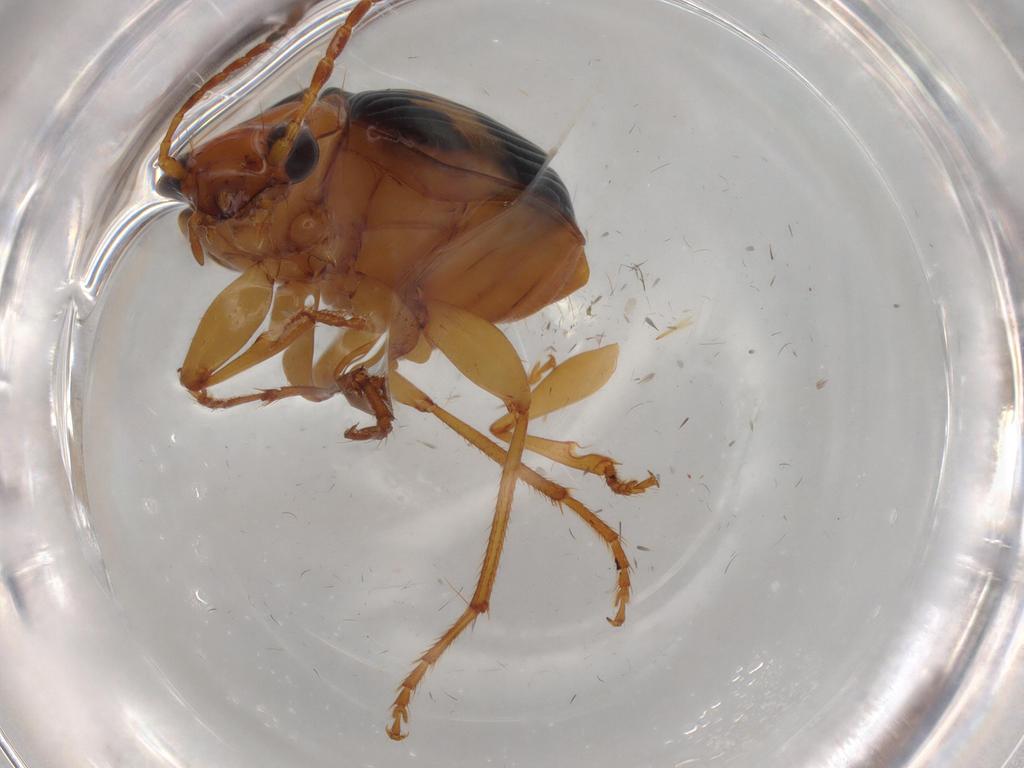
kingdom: Animalia
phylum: Arthropoda
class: Insecta
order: Coleoptera
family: Carabidae
